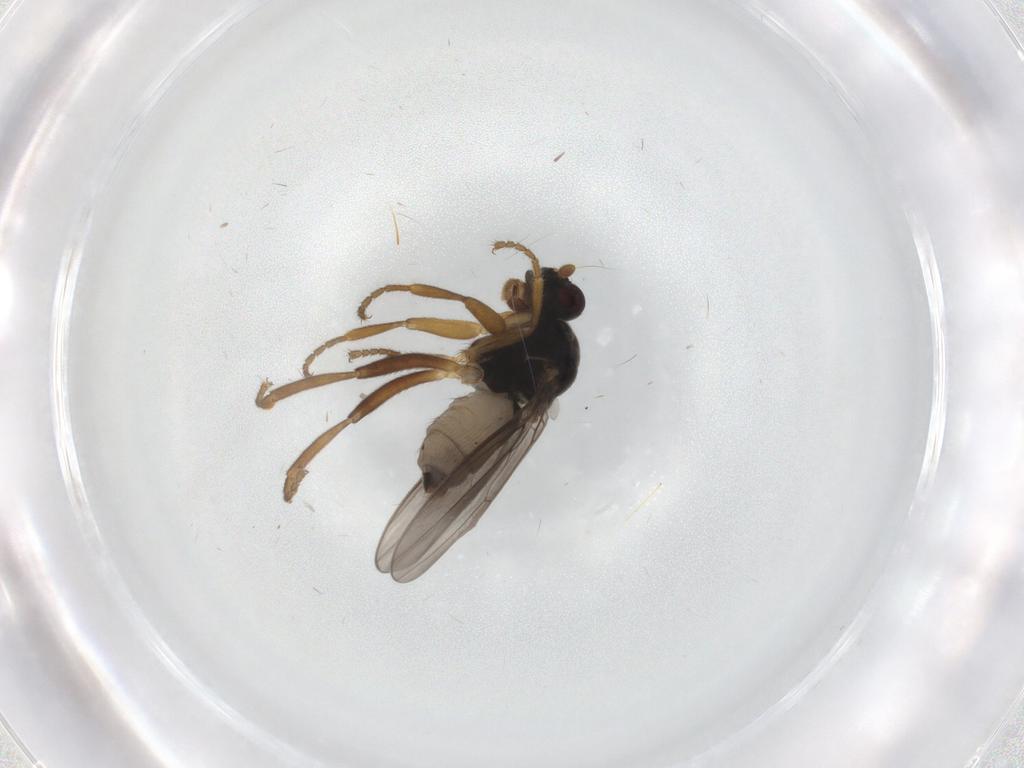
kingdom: Animalia
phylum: Arthropoda
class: Insecta
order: Diptera
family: Sphaeroceridae
